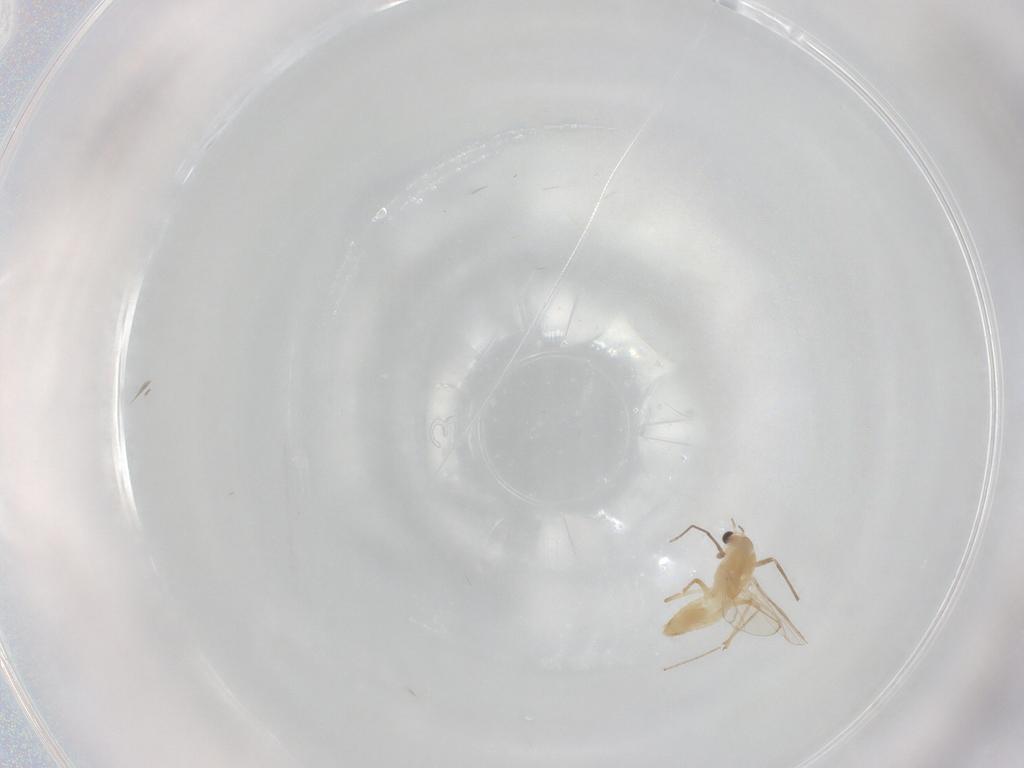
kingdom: Animalia
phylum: Arthropoda
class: Insecta
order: Diptera
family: Chironomidae
